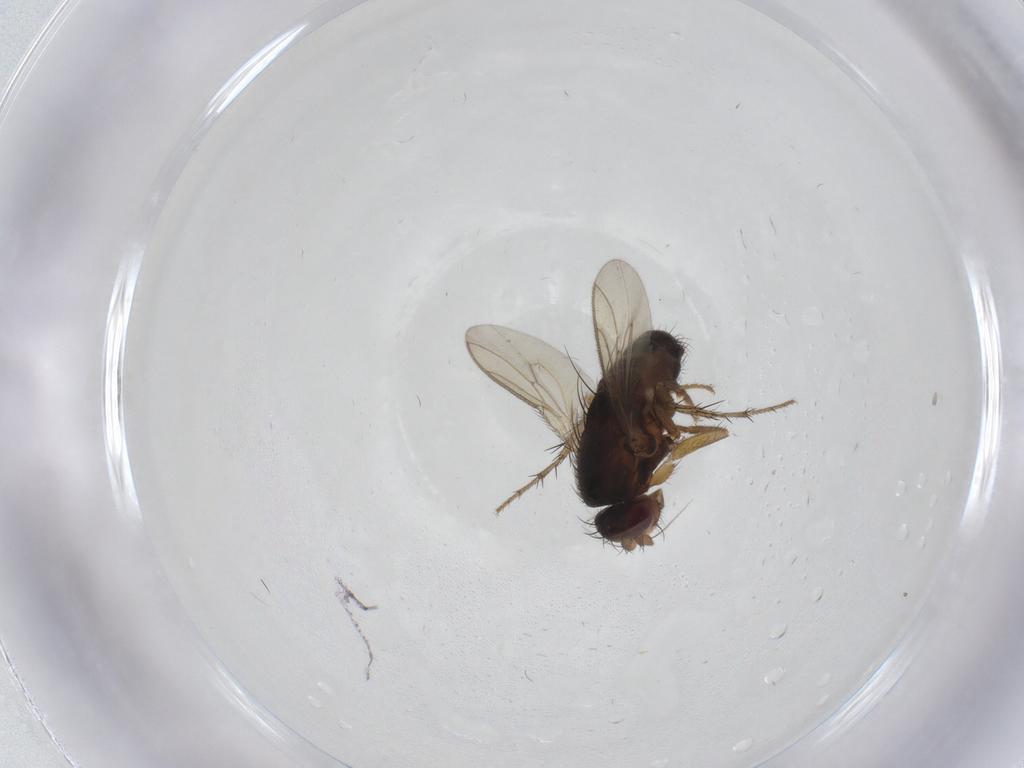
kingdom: Animalia
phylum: Arthropoda
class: Insecta
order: Diptera
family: Sphaeroceridae
